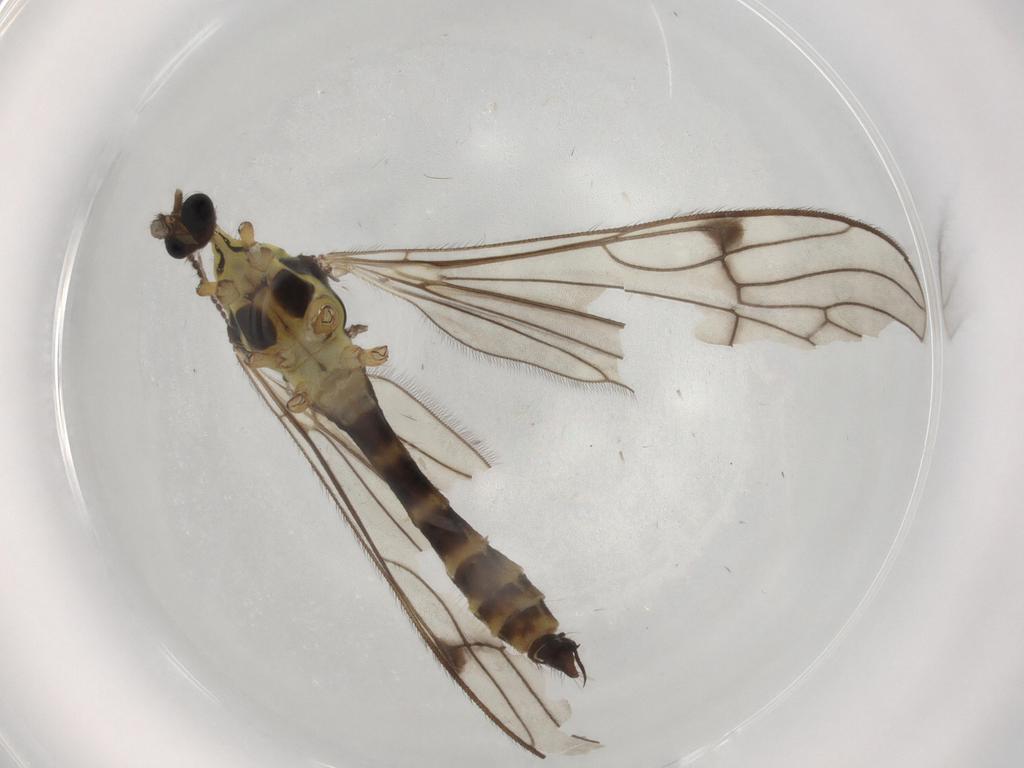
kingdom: Animalia
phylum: Arthropoda
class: Insecta
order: Diptera
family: Limoniidae
